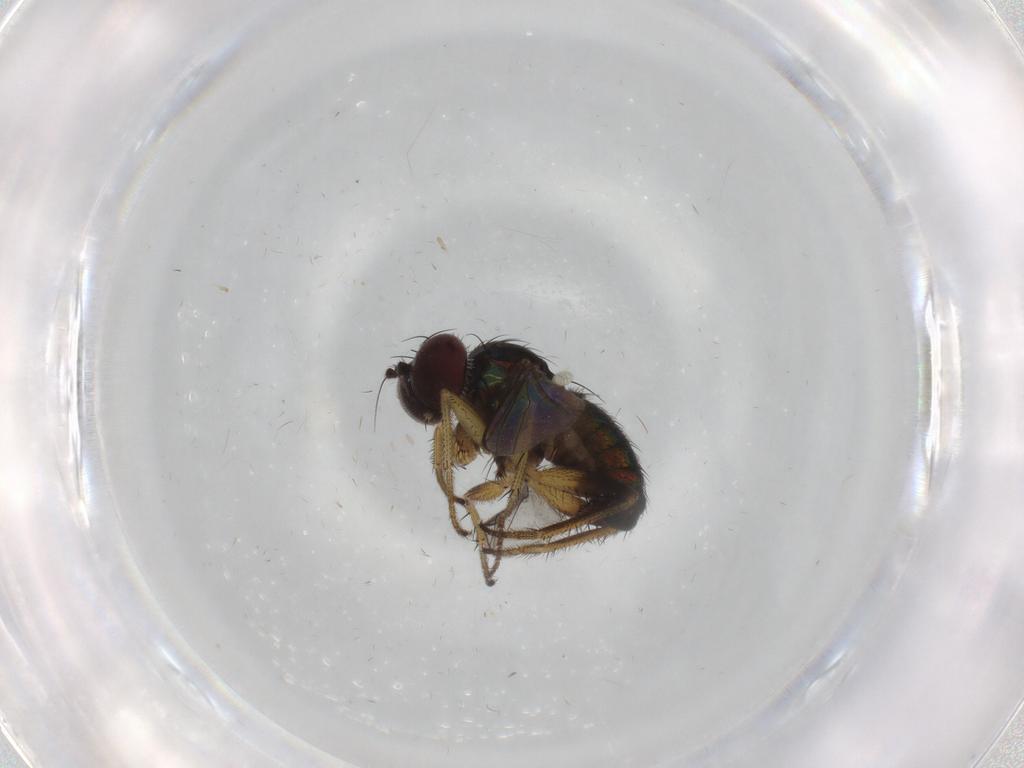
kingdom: Animalia
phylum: Arthropoda
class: Insecta
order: Diptera
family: Dolichopodidae
